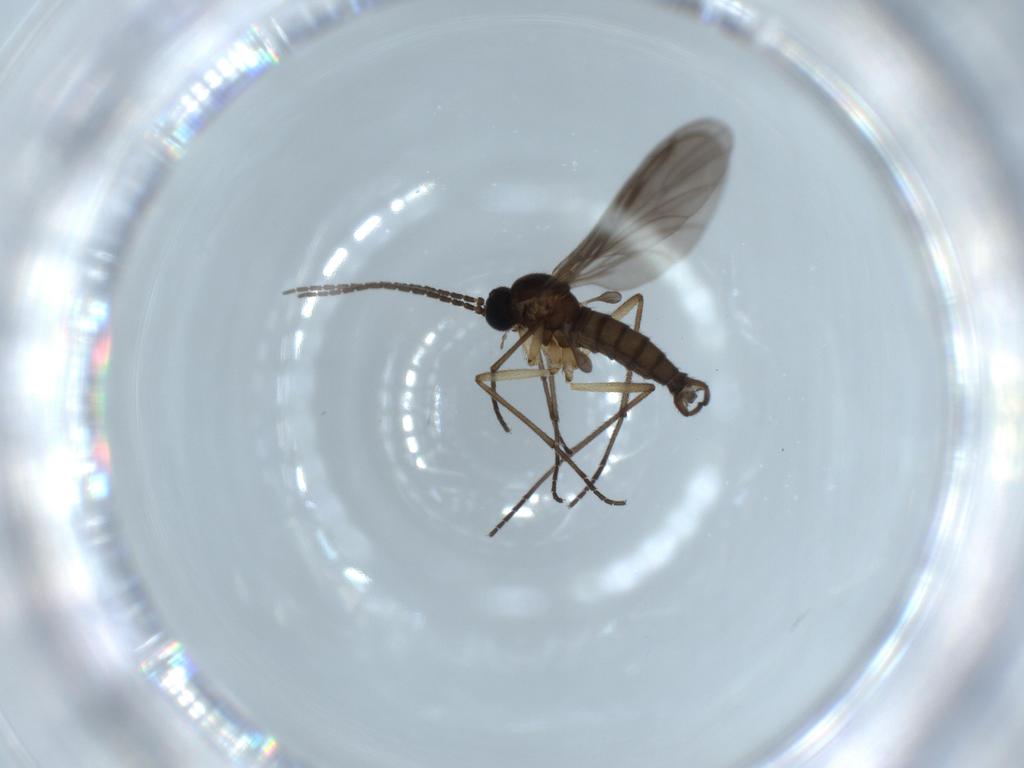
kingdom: Animalia
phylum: Arthropoda
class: Insecta
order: Diptera
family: Sciaridae
